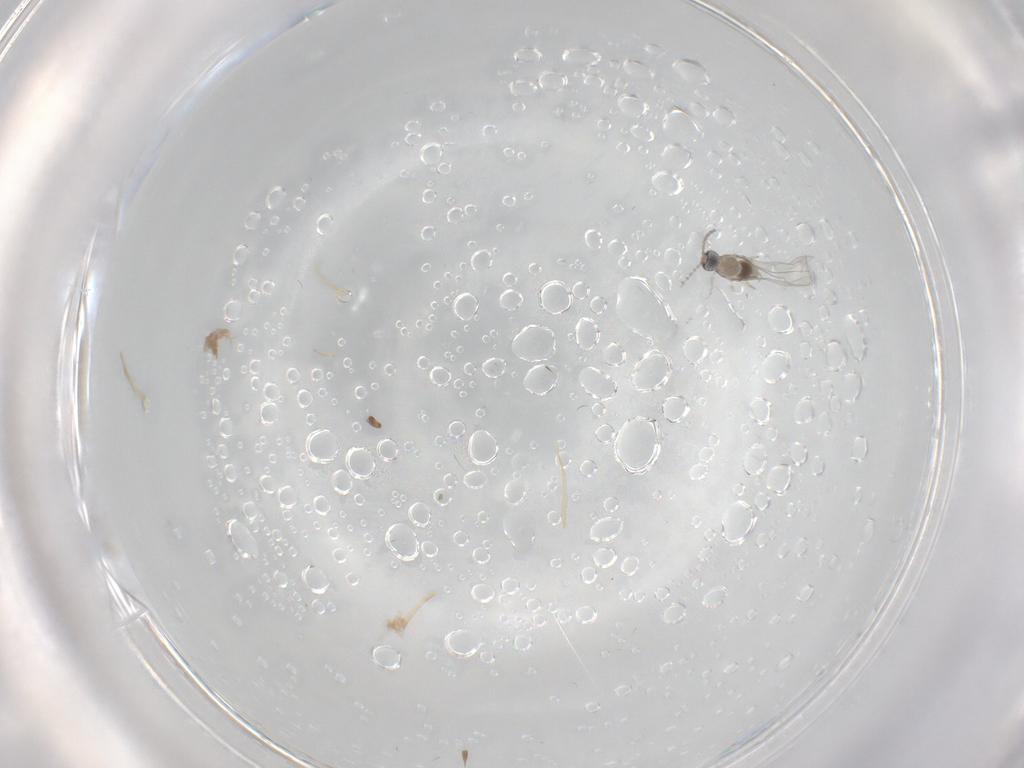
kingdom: Animalia
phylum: Arthropoda
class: Insecta
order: Diptera
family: Cecidomyiidae
